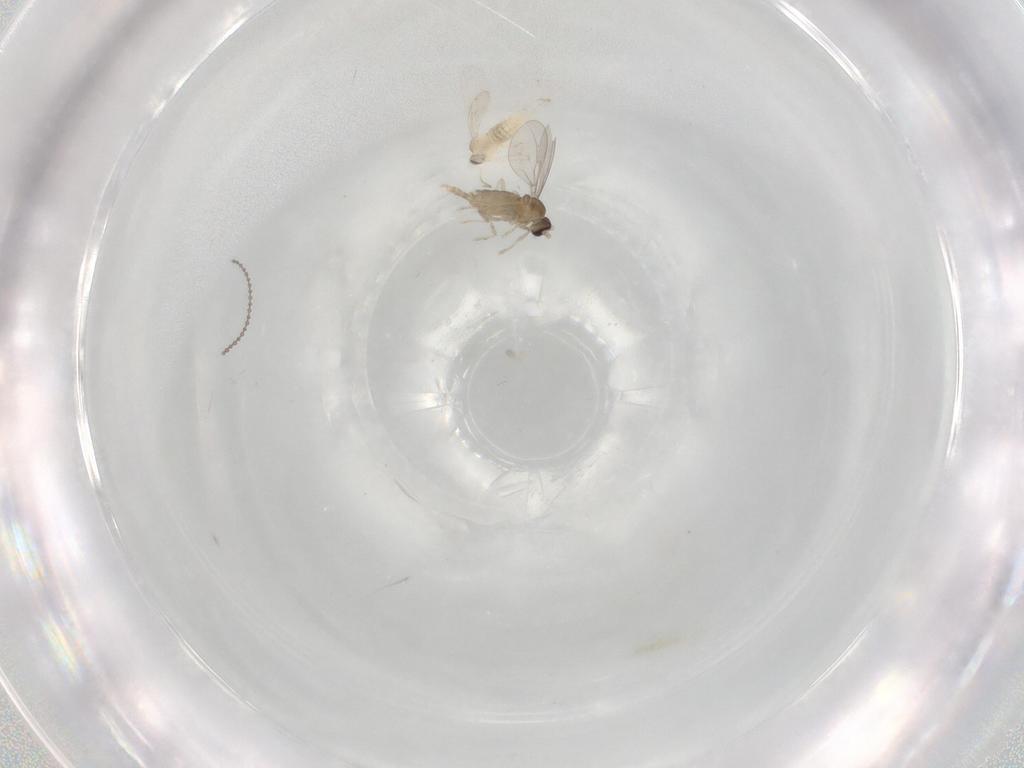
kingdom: Animalia
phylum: Arthropoda
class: Insecta
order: Diptera
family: Cecidomyiidae
